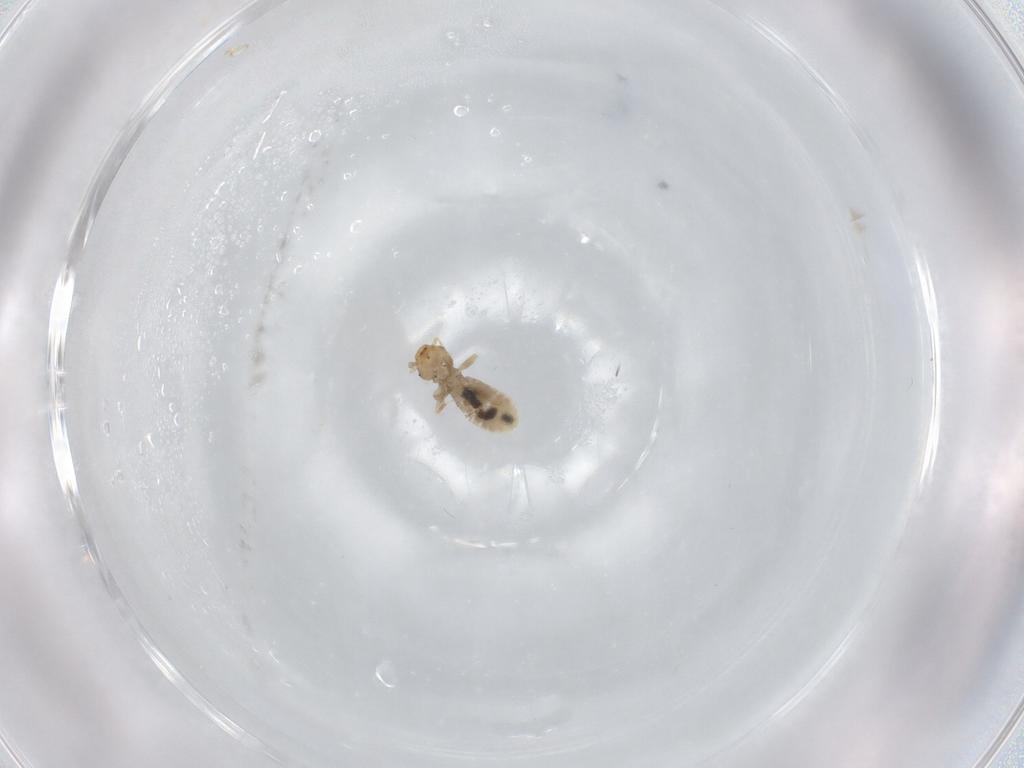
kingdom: Animalia
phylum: Arthropoda
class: Insecta
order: Psocodea
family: Liposcelididae
